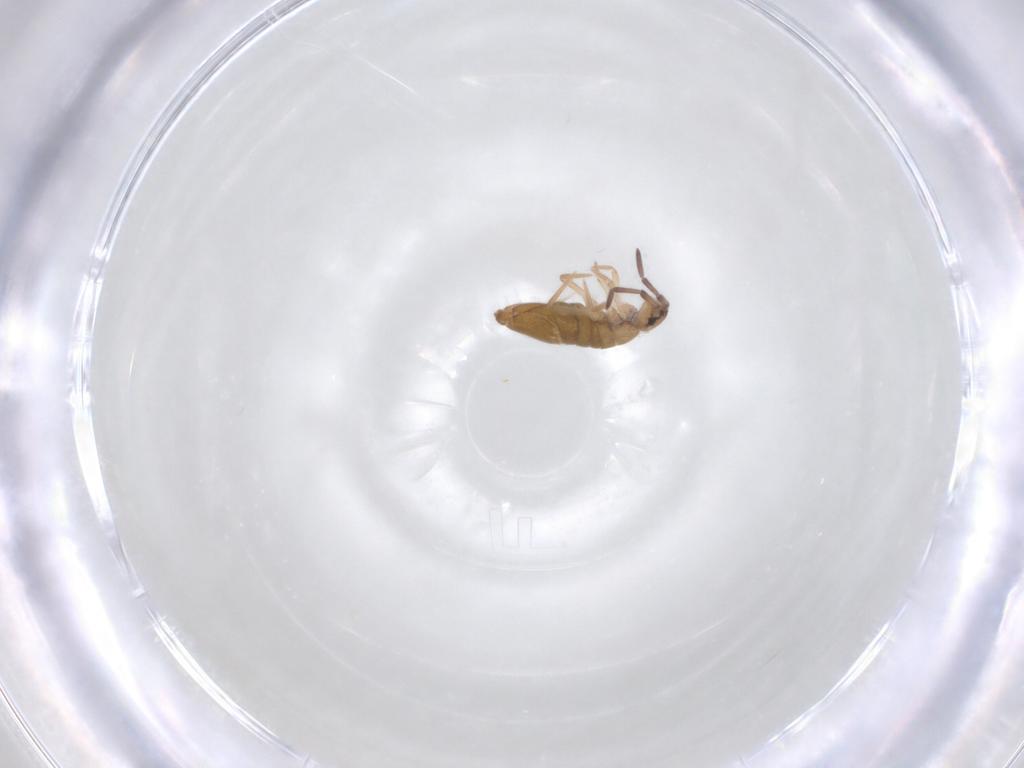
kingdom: Animalia
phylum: Arthropoda
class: Collembola
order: Entomobryomorpha
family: Entomobryidae
